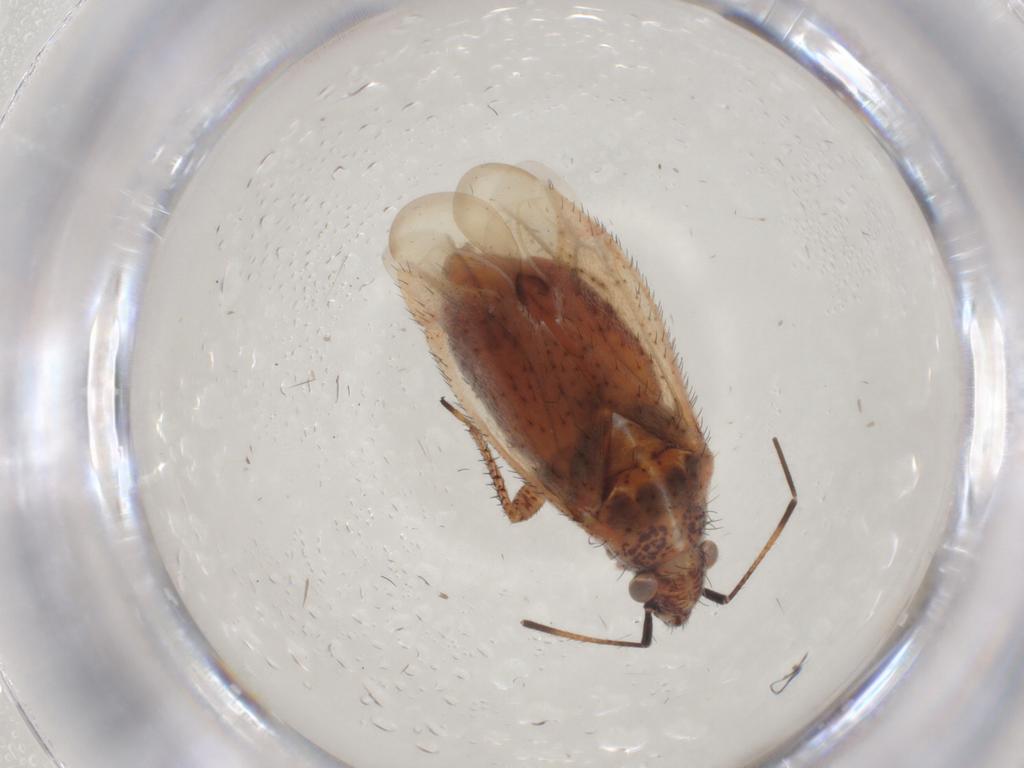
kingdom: Animalia
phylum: Arthropoda
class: Insecta
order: Diptera
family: Phoridae
